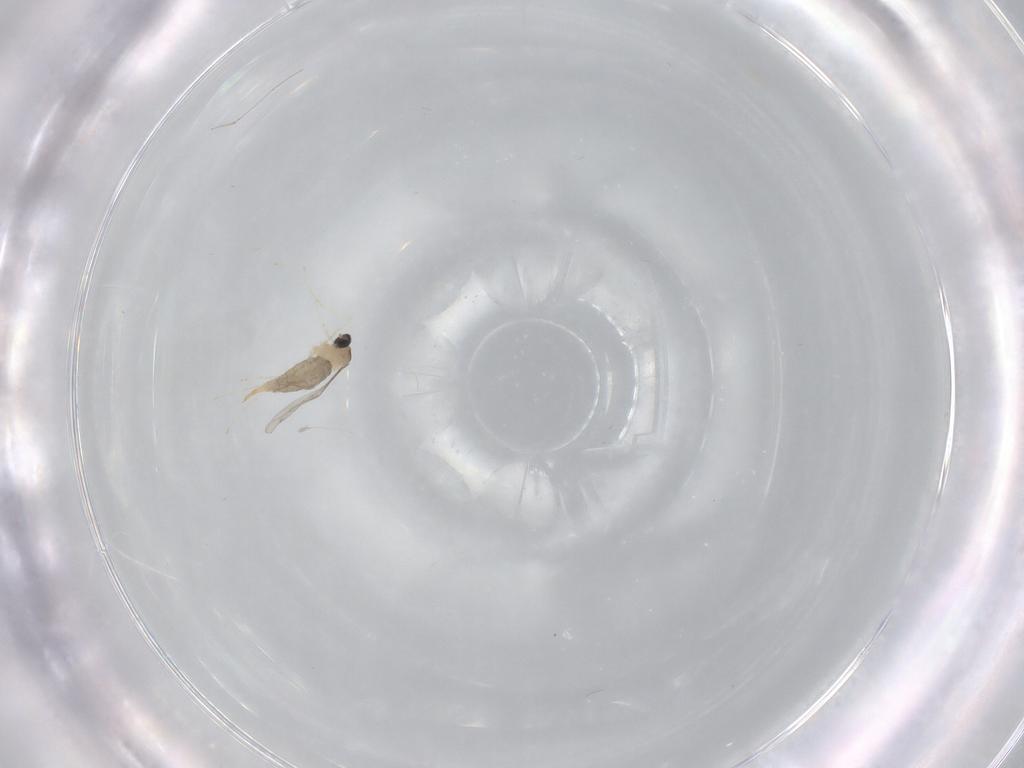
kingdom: Animalia
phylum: Arthropoda
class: Insecta
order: Diptera
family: Cecidomyiidae
